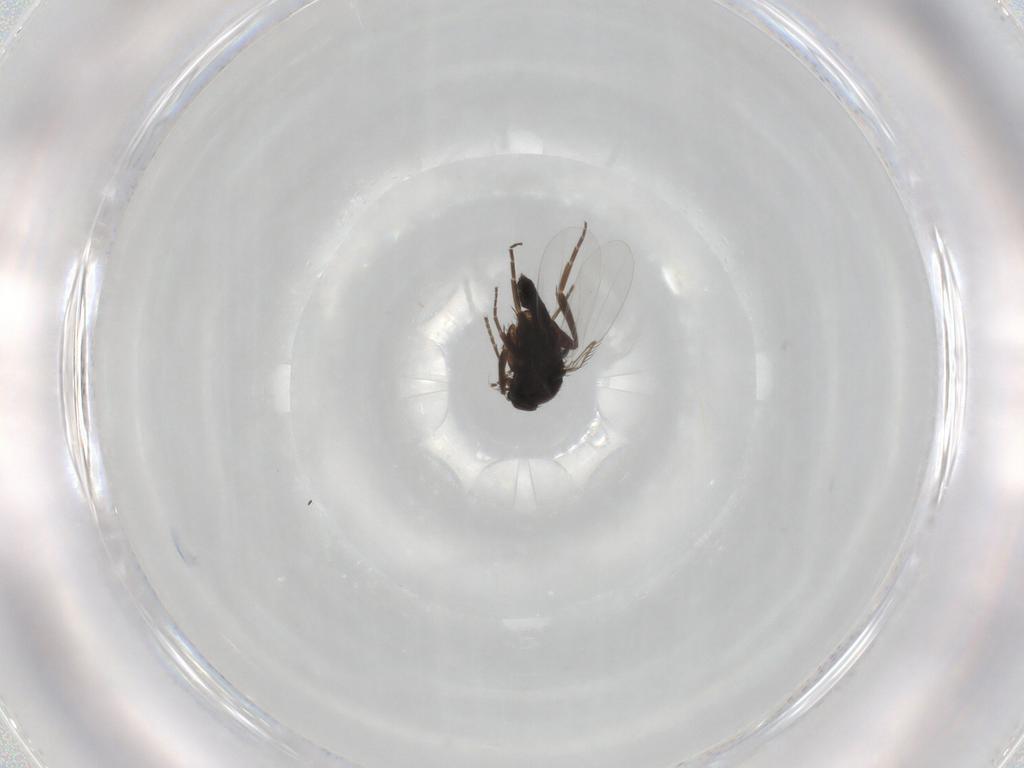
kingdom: Animalia
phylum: Arthropoda
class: Insecta
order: Diptera
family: Phoridae
